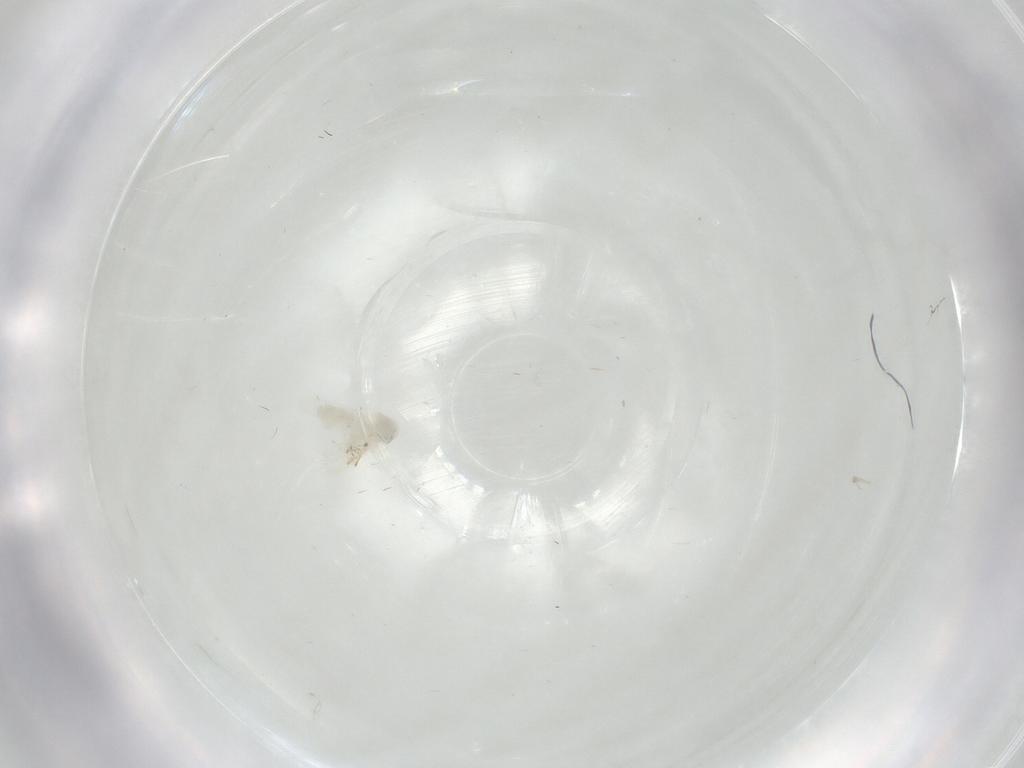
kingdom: Animalia
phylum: Arthropoda
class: Insecta
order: Diptera
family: Chironomidae
